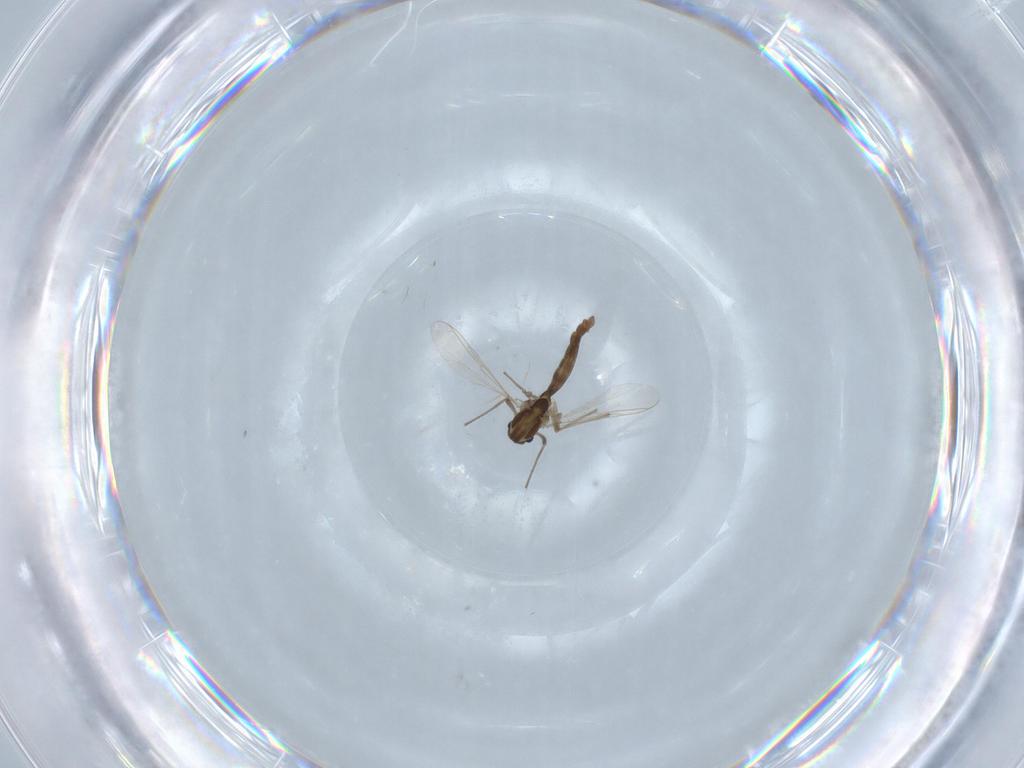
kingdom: Animalia
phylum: Arthropoda
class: Insecta
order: Diptera
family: Chironomidae
